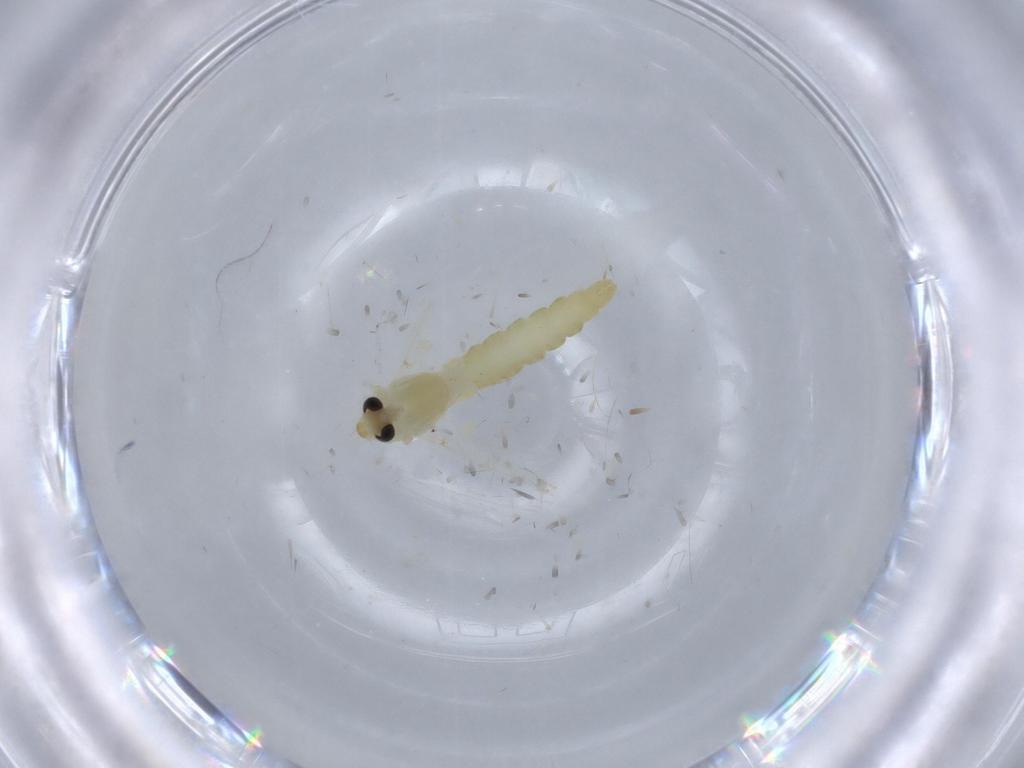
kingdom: Animalia
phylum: Arthropoda
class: Insecta
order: Diptera
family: Chironomidae
